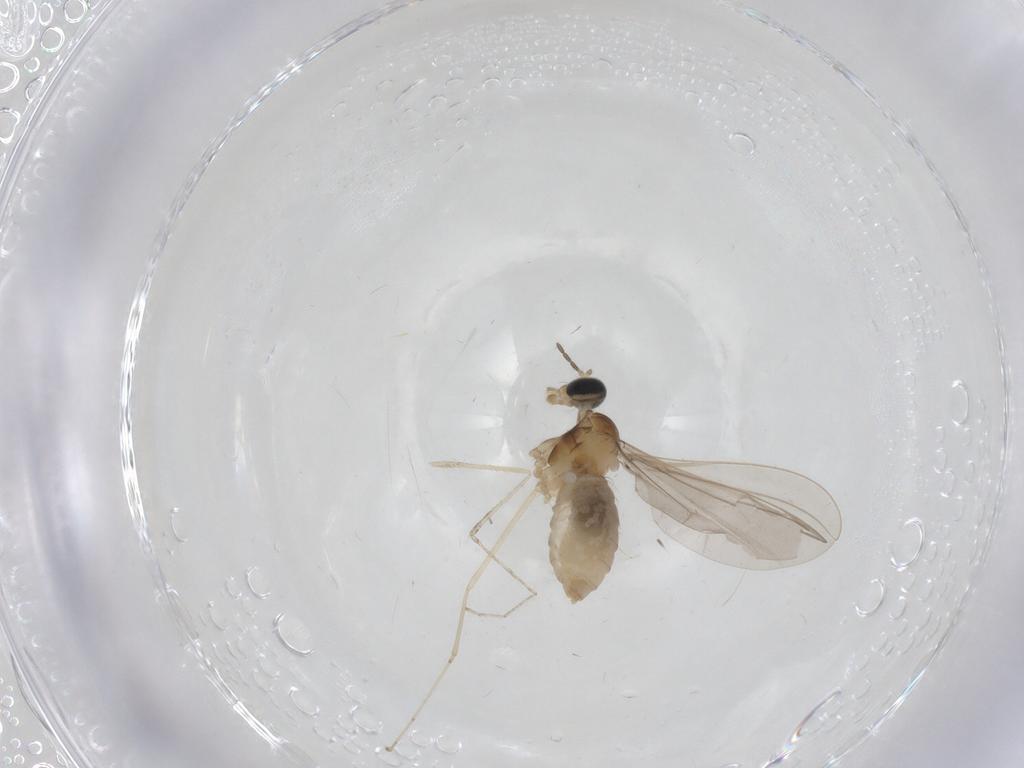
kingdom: Animalia
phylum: Arthropoda
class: Insecta
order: Diptera
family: Cecidomyiidae
